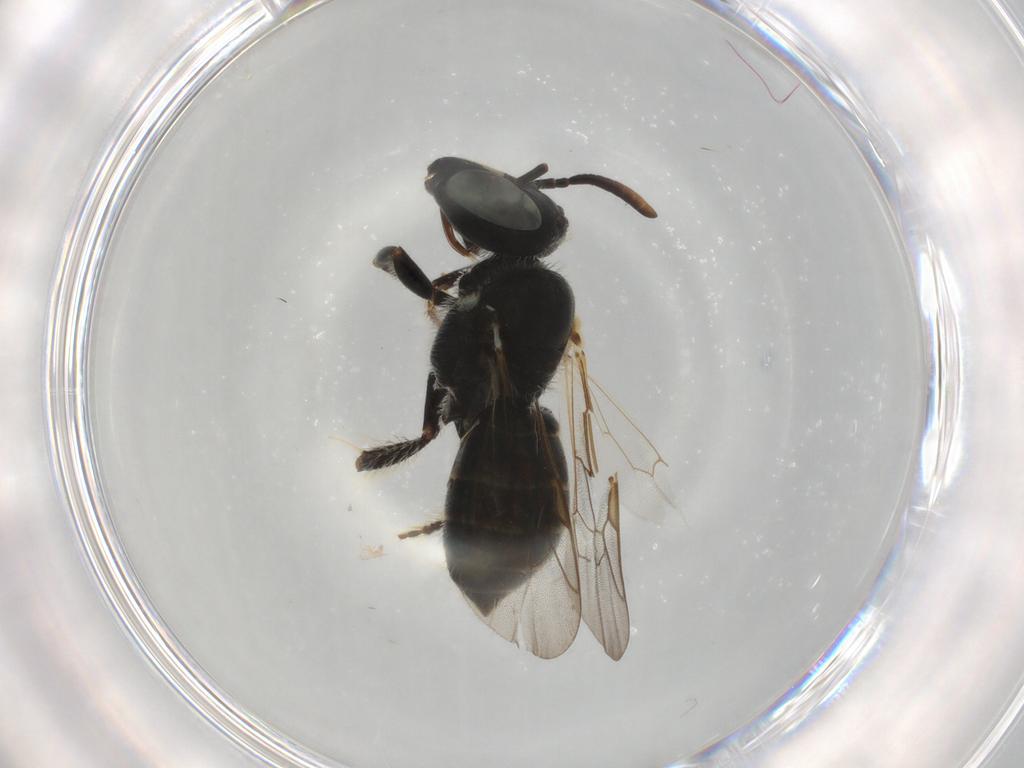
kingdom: Animalia
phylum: Arthropoda
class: Insecta
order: Hymenoptera
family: Apidae
